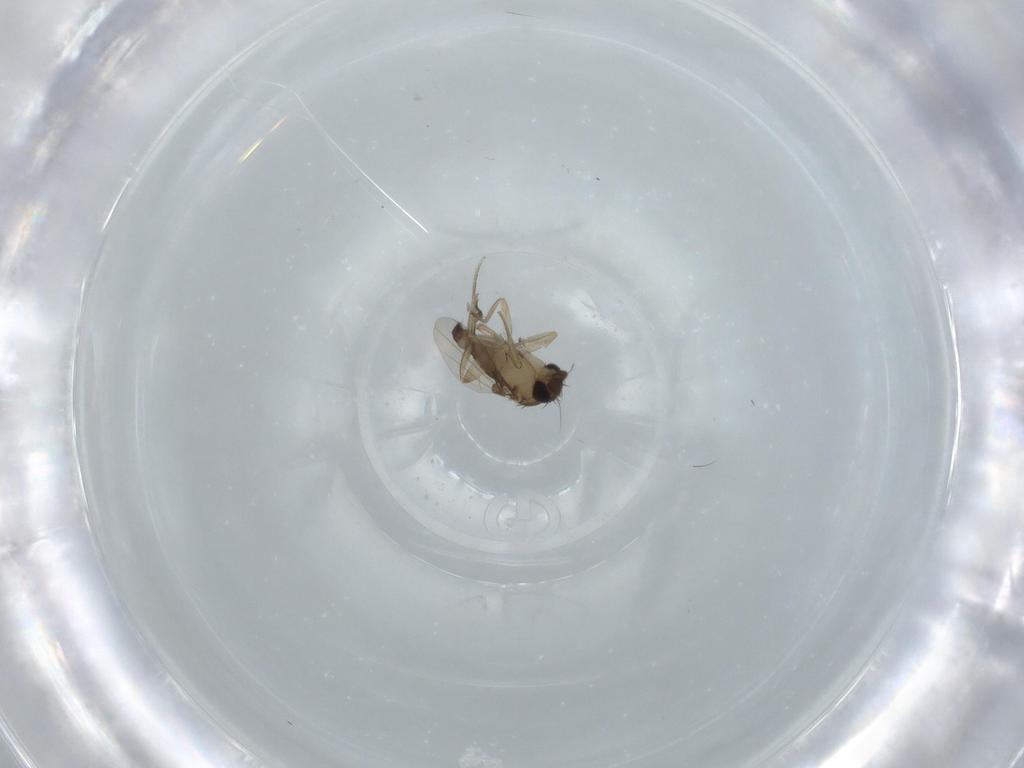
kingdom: Animalia
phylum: Arthropoda
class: Insecta
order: Diptera
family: Phoridae
